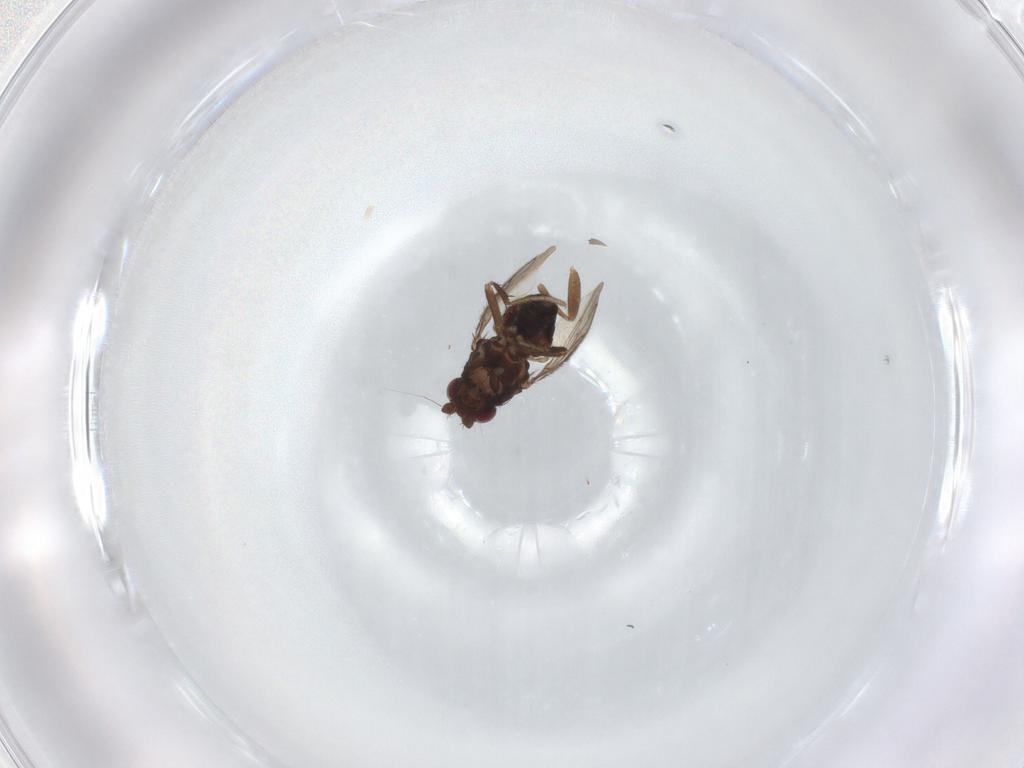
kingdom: Animalia
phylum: Arthropoda
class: Insecta
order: Diptera
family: Sphaeroceridae
